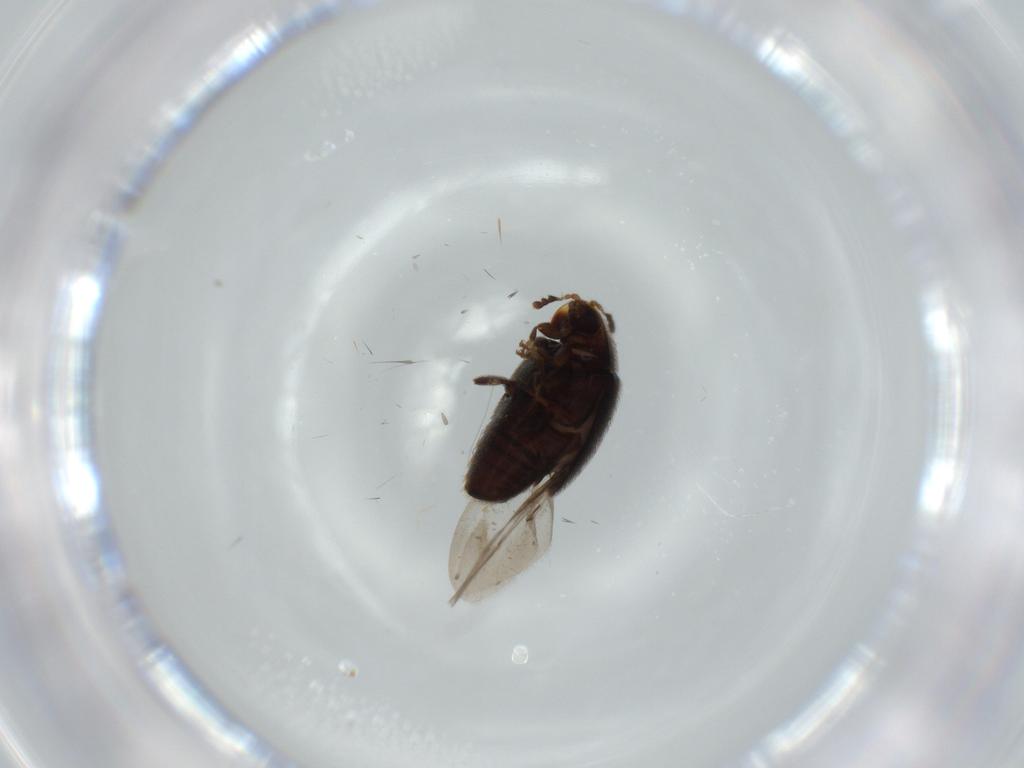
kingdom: Animalia
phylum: Arthropoda
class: Insecta
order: Coleoptera
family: Corylophidae
